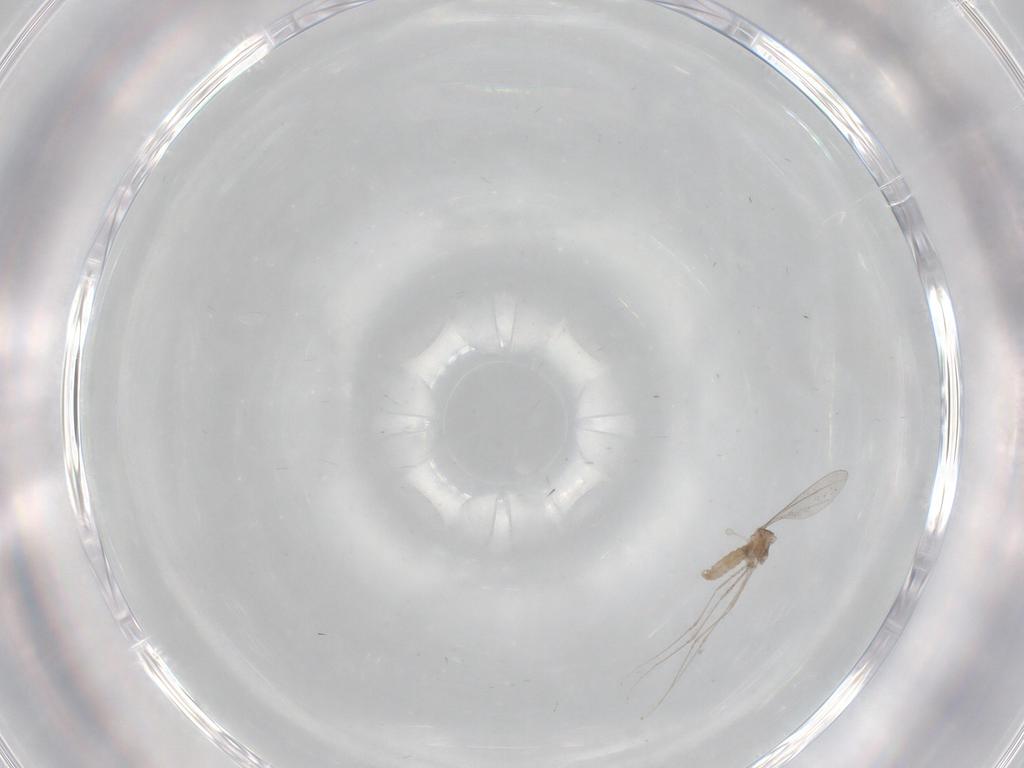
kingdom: Animalia
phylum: Arthropoda
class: Insecta
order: Diptera
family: Cecidomyiidae
